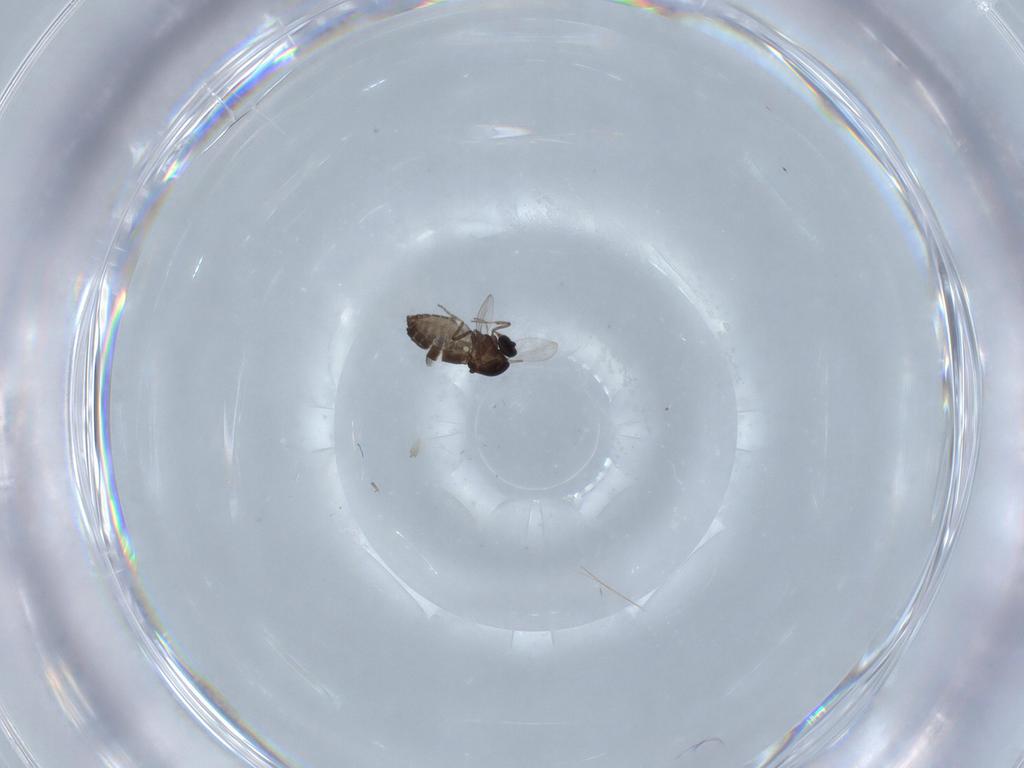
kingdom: Animalia
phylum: Arthropoda
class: Insecta
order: Diptera
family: Ceratopogonidae
